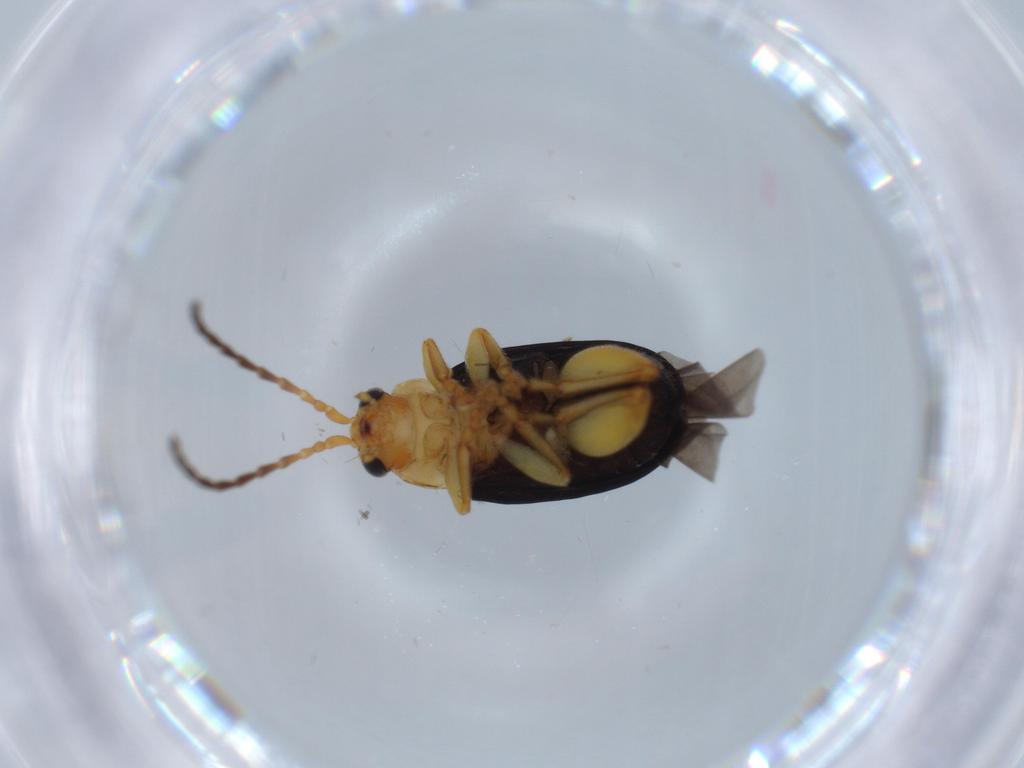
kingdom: Animalia
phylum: Arthropoda
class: Insecta
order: Coleoptera
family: Chrysomelidae
